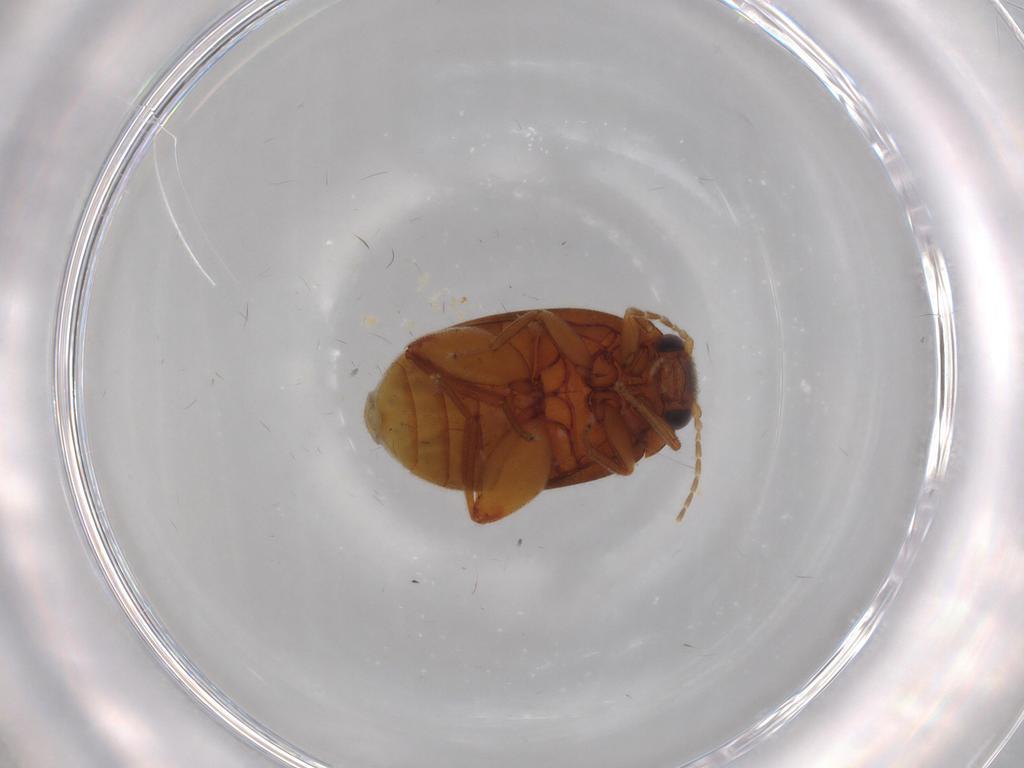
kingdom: Animalia
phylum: Arthropoda
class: Insecta
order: Coleoptera
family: Scirtidae
